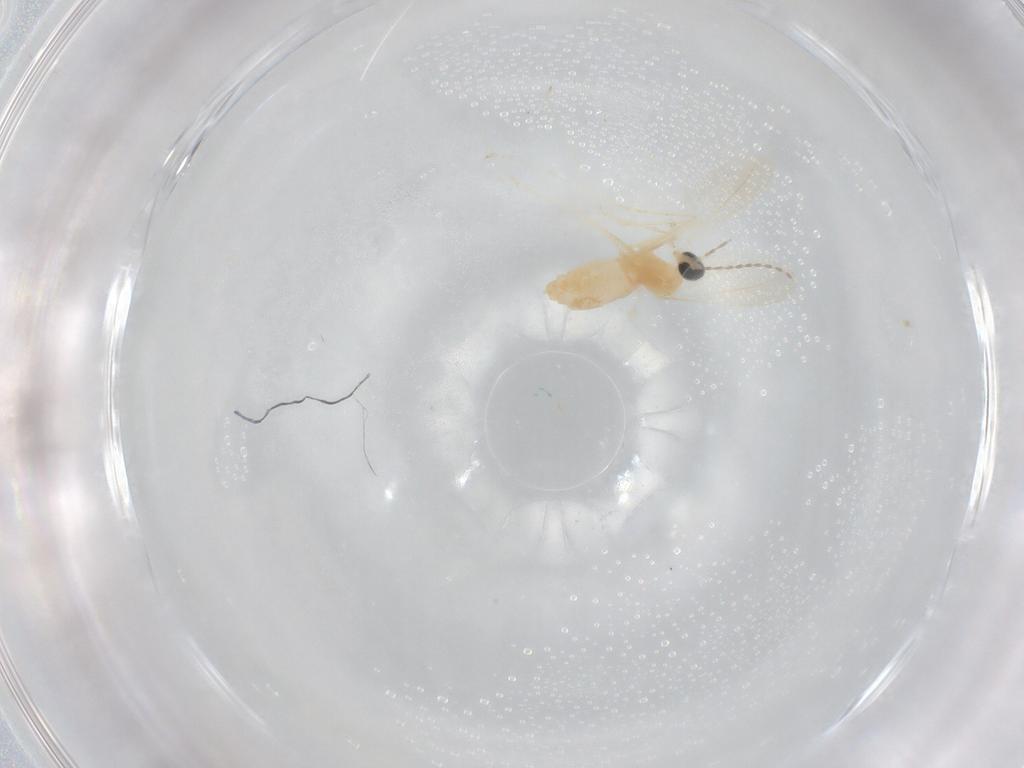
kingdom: Animalia
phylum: Arthropoda
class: Insecta
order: Diptera
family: Cecidomyiidae
